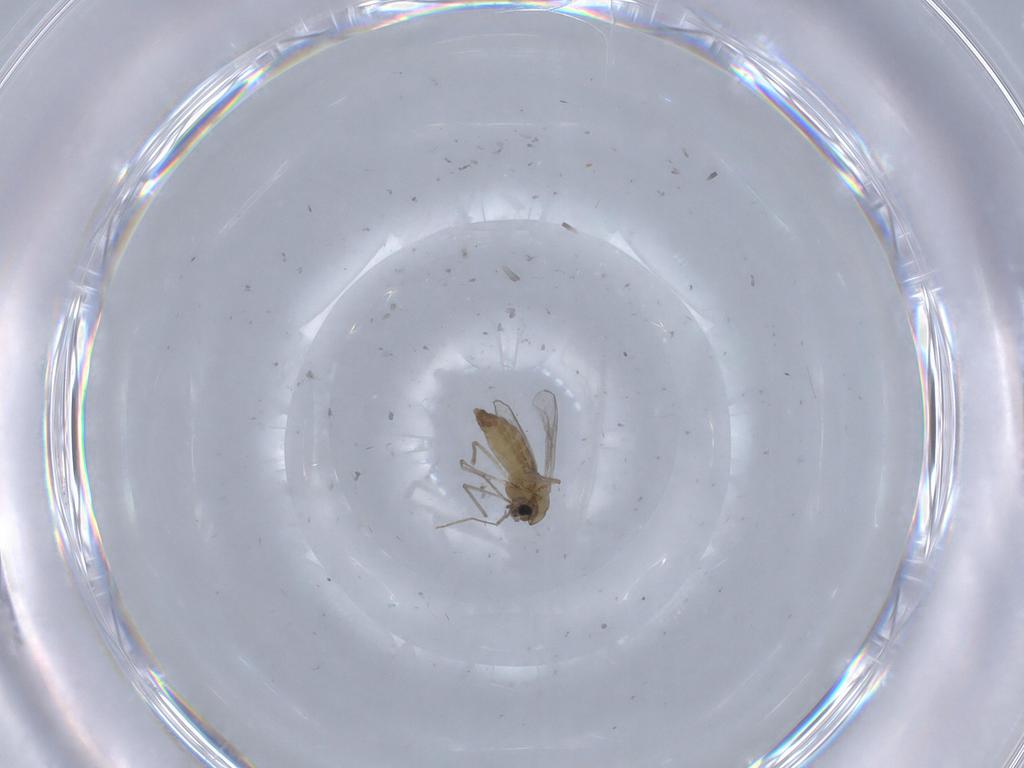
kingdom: Animalia
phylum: Arthropoda
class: Insecta
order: Diptera
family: Chironomidae
